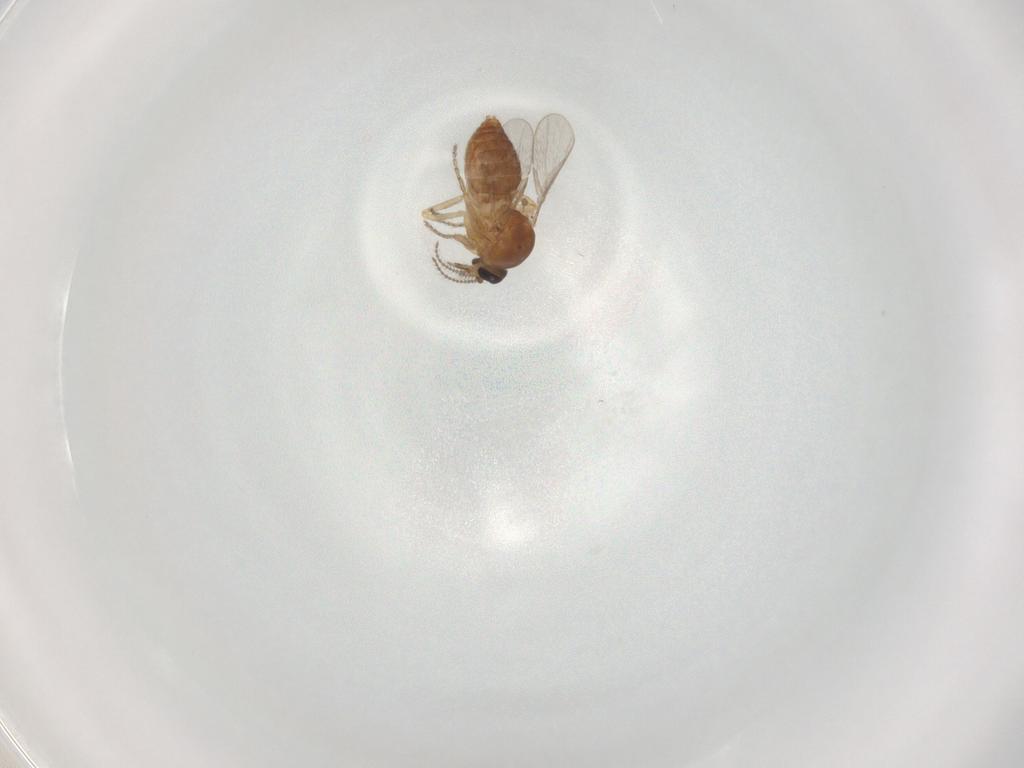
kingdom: Animalia
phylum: Arthropoda
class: Insecta
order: Diptera
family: Ceratopogonidae
